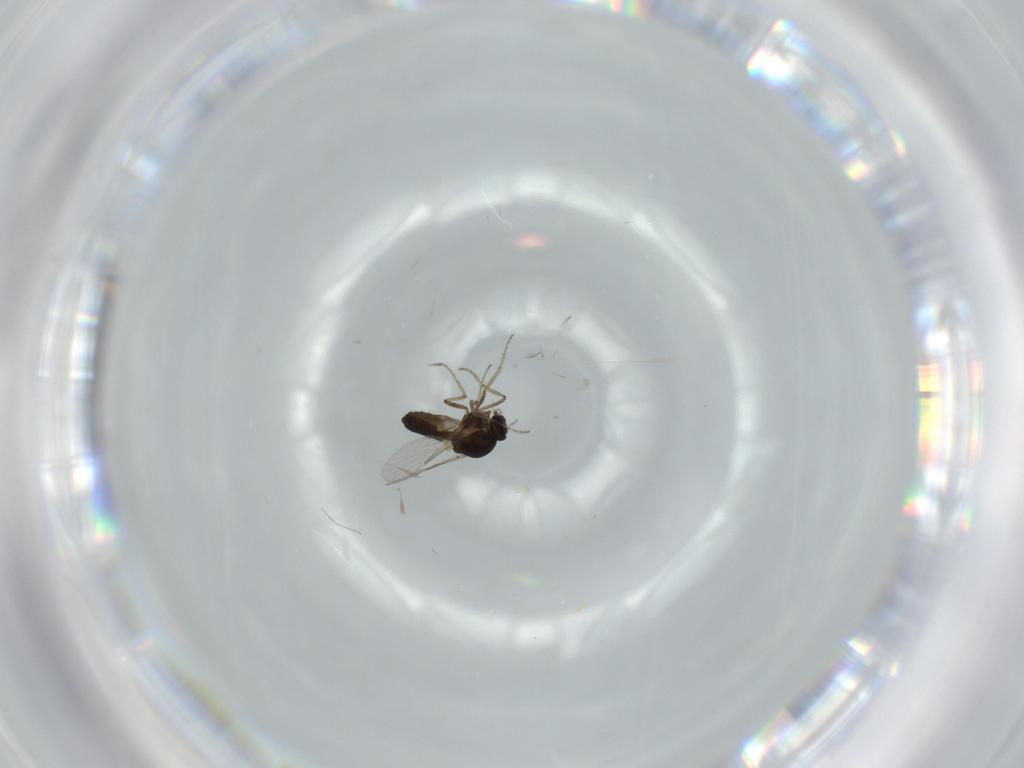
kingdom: Animalia
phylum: Arthropoda
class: Insecta
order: Diptera
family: Ceratopogonidae
